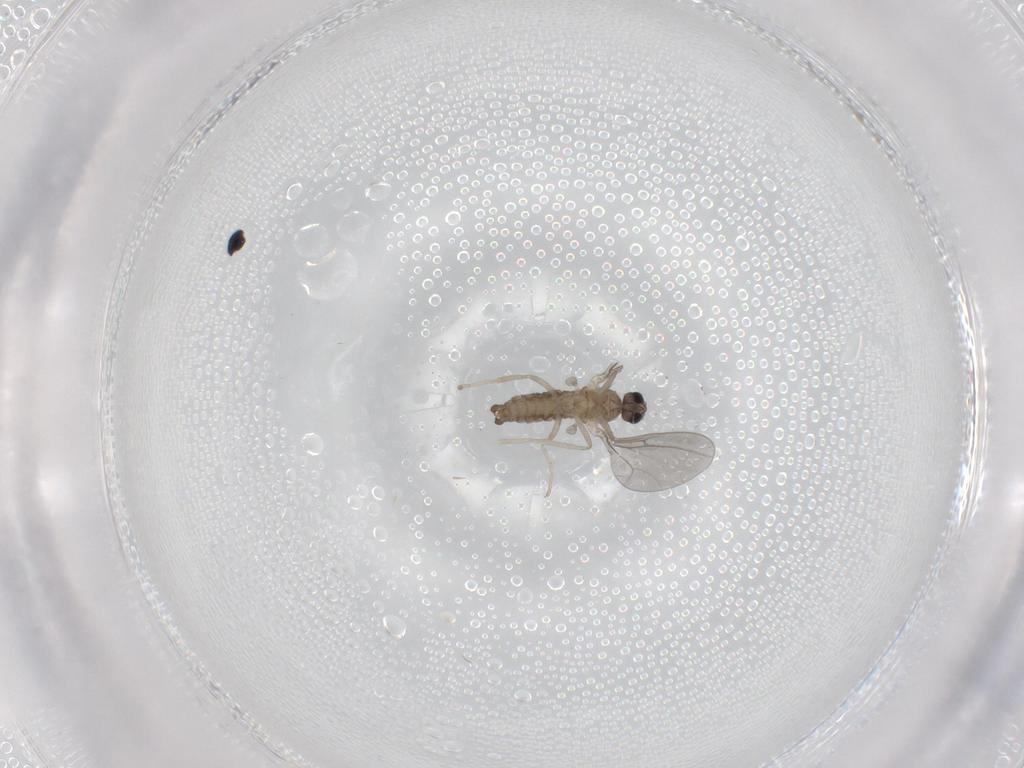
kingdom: Animalia
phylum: Arthropoda
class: Insecta
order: Diptera
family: Cecidomyiidae
